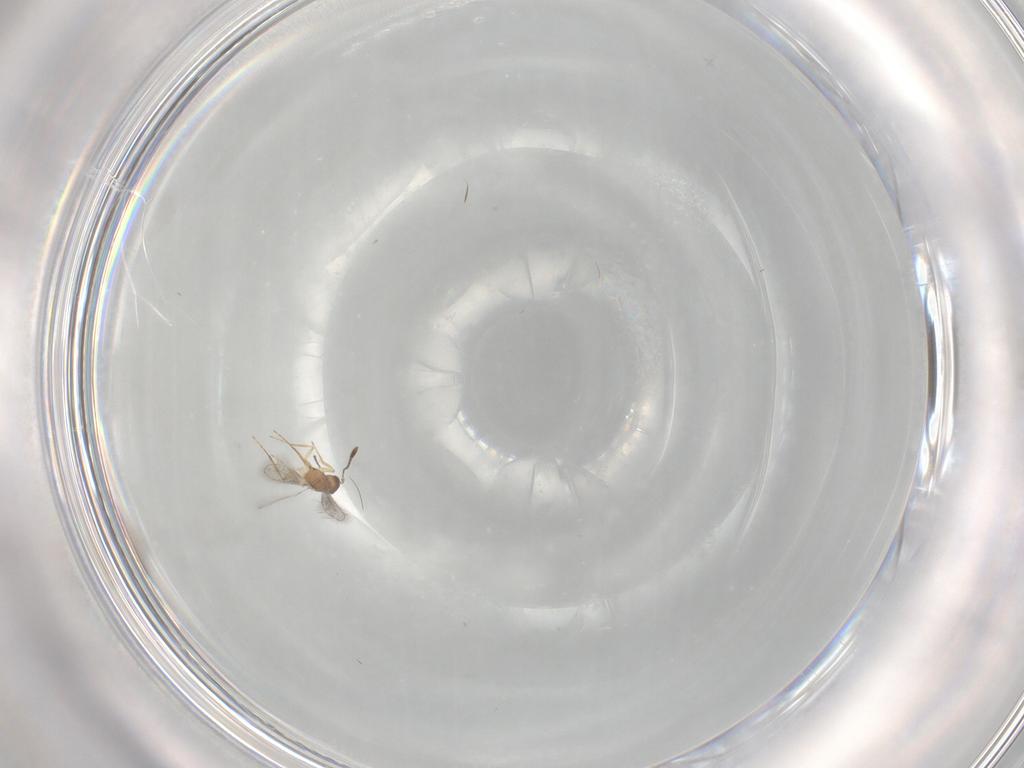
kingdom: Animalia
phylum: Arthropoda
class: Insecta
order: Diptera
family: Cecidomyiidae
